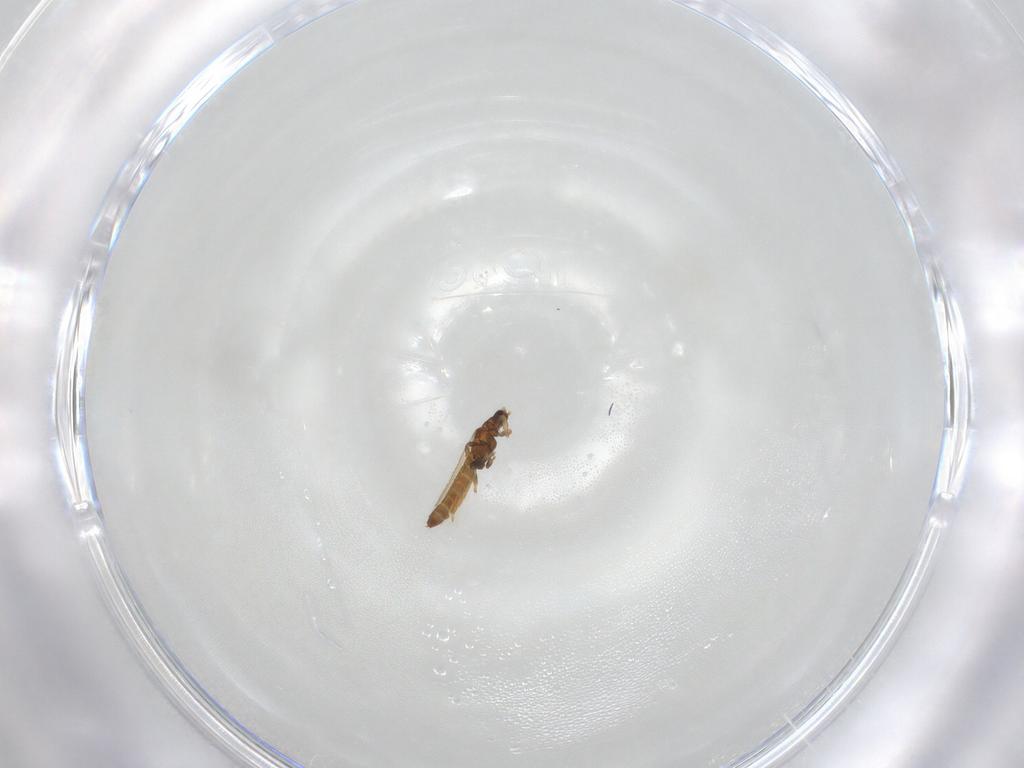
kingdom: Animalia
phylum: Arthropoda
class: Insecta
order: Thysanoptera
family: Thripidae
